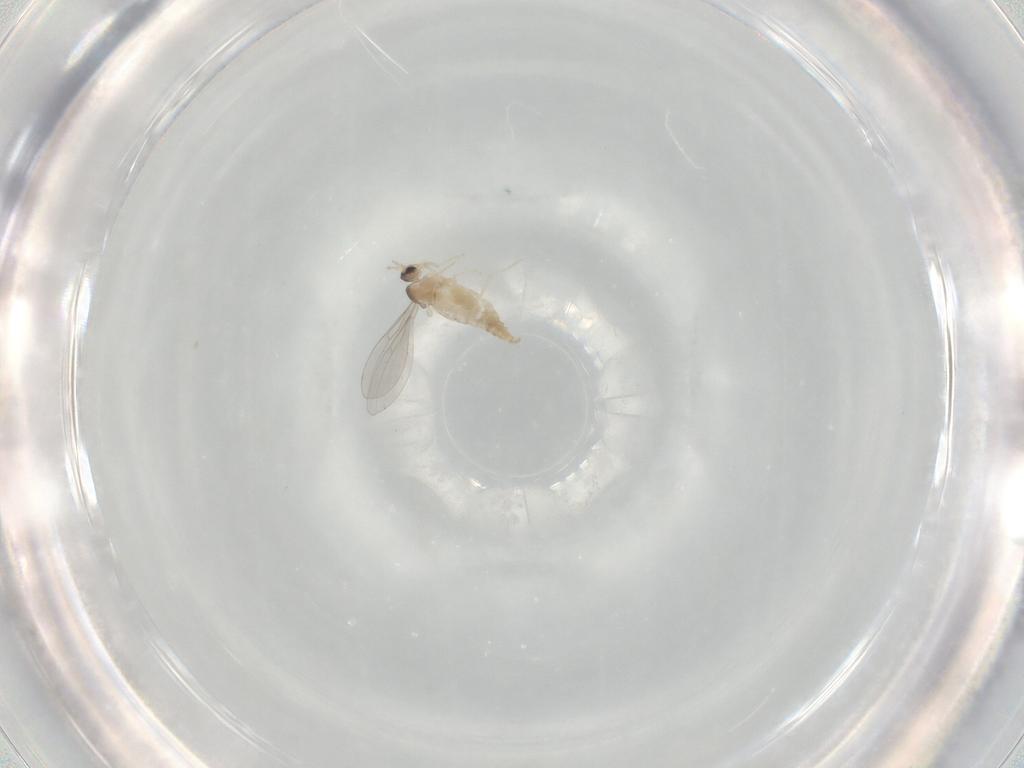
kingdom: Animalia
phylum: Arthropoda
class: Insecta
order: Diptera
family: Cecidomyiidae
